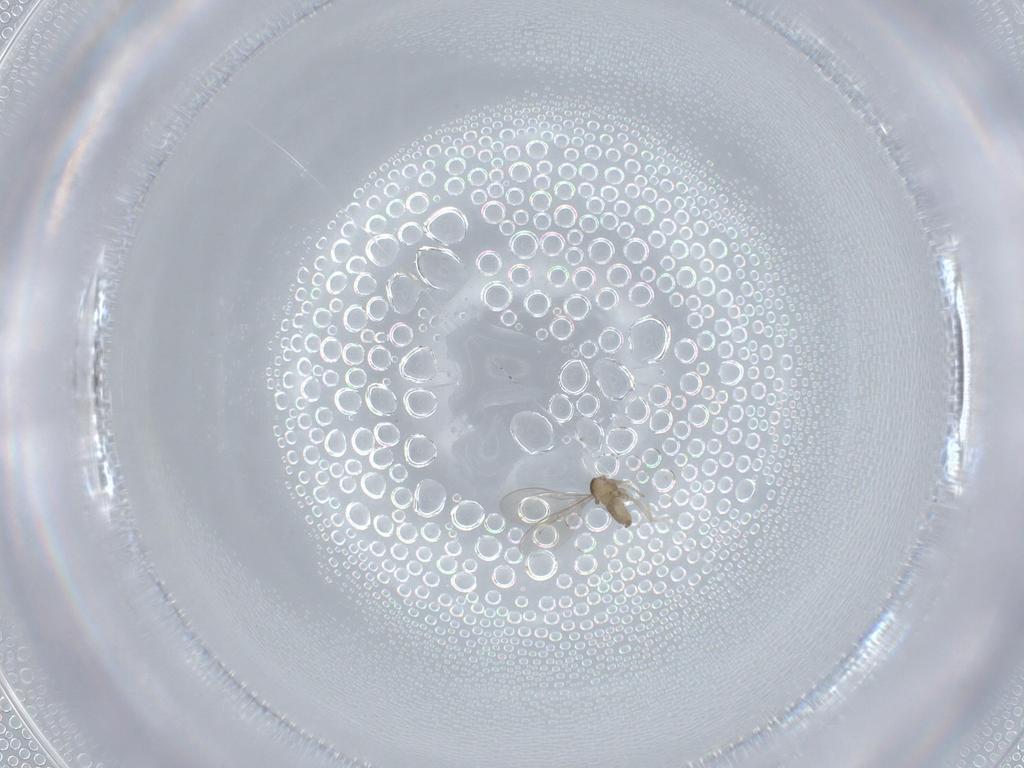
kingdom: Animalia
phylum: Arthropoda
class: Insecta
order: Diptera
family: Cecidomyiidae
